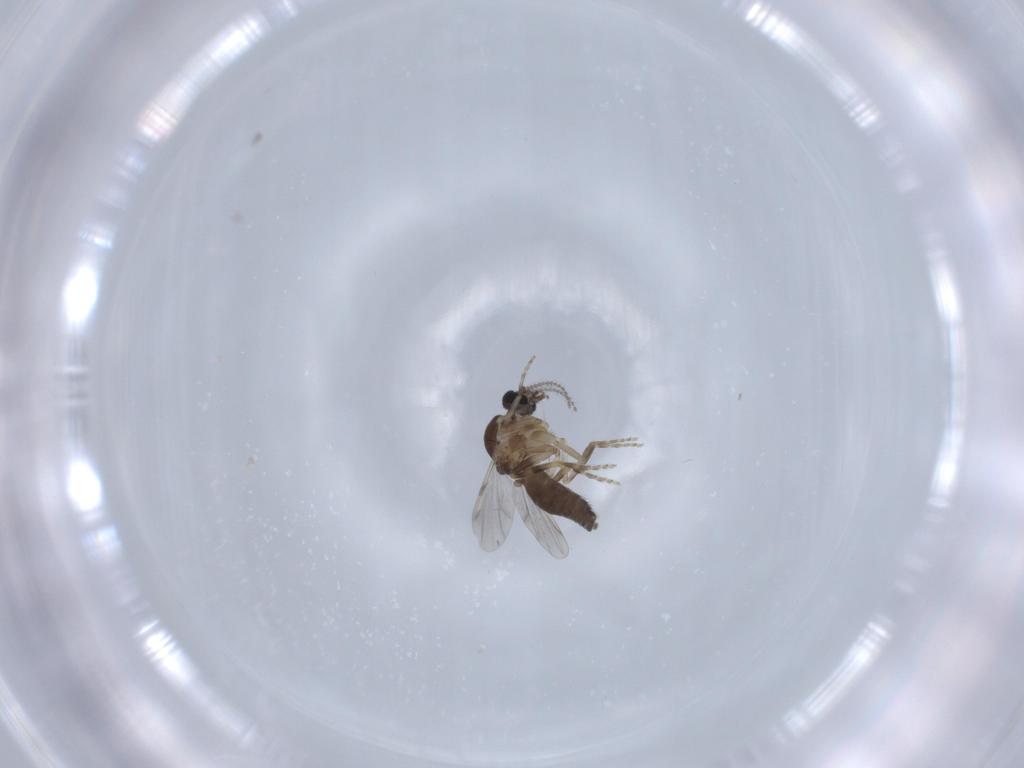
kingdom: Animalia
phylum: Arthropoda
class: Insecta
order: Diptera
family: Ceratopogonidae
